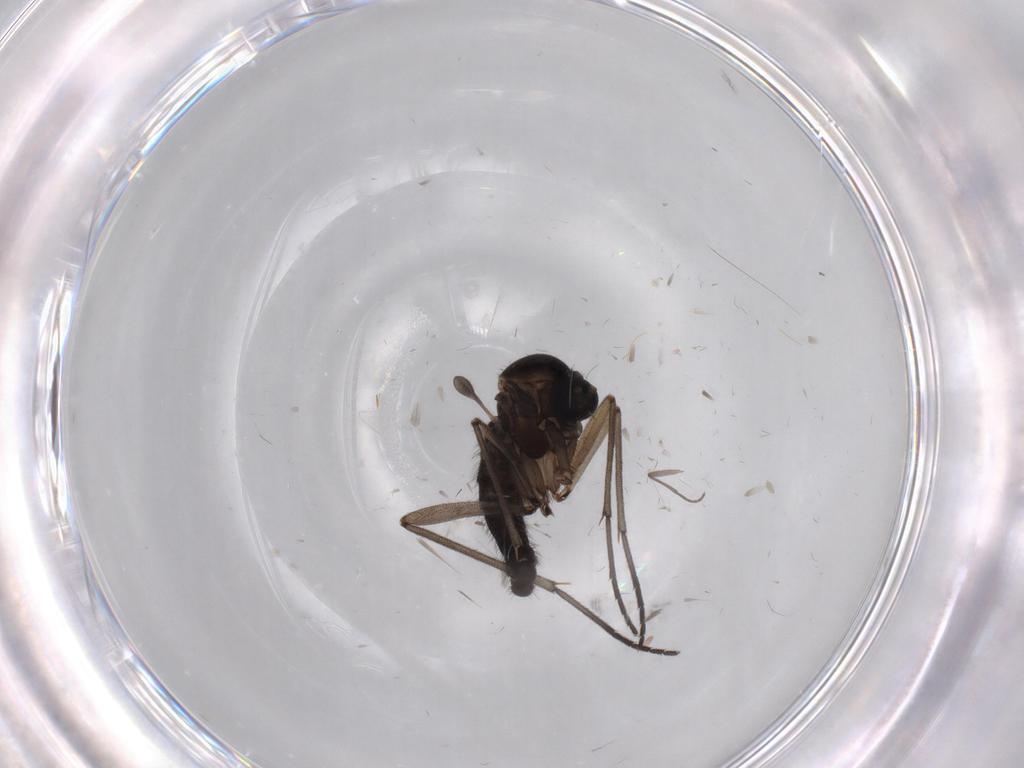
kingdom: Animalia
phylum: Arthropoda
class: Insecta
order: Diptera
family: Sciaridae
